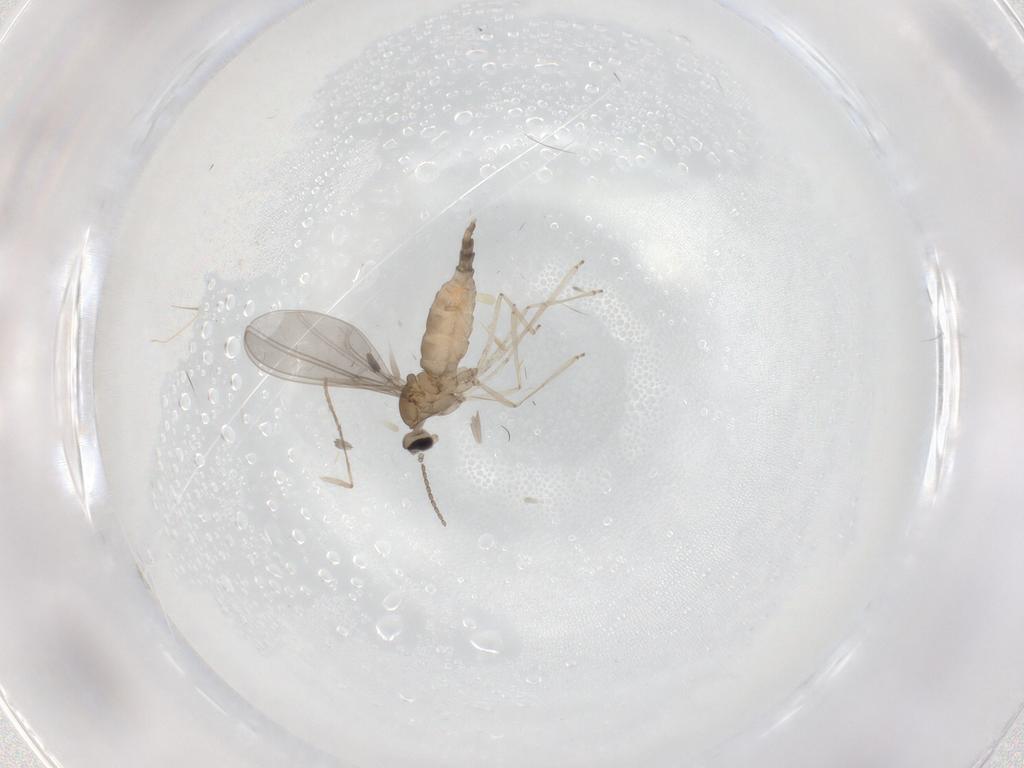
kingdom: Animalia
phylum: Arthropoda
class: Insecta
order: Diptera
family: Cecidomyiidae
